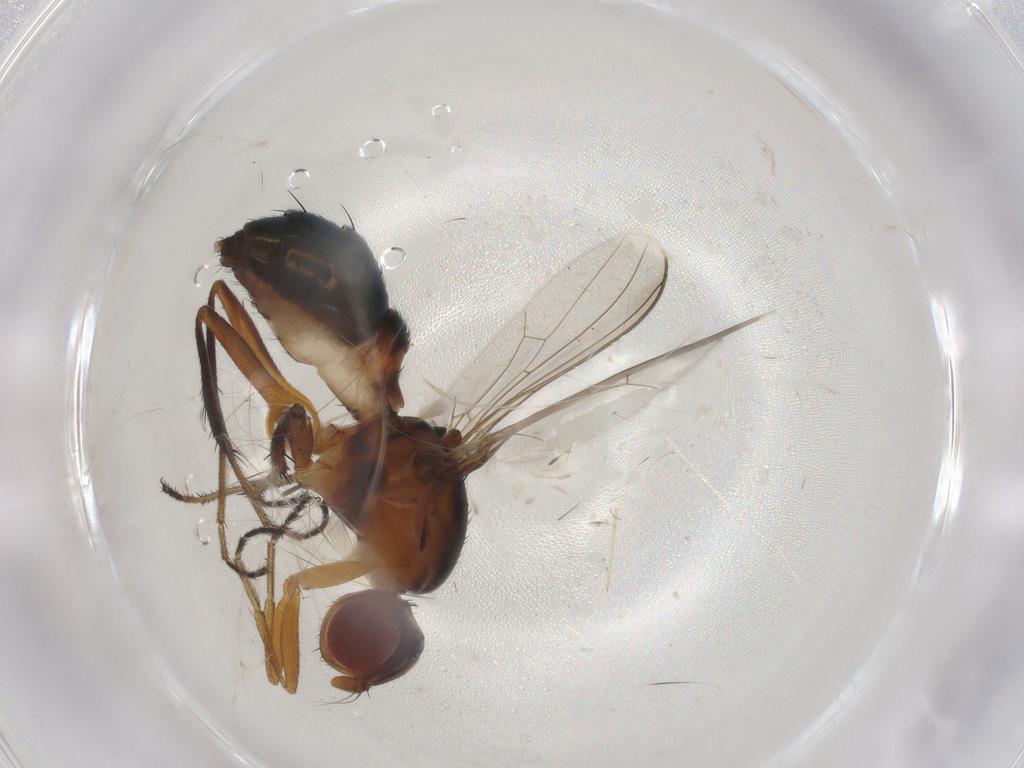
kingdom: Animalia
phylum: Arthropoda
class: Insecta
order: Diptera
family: Sepsidae
